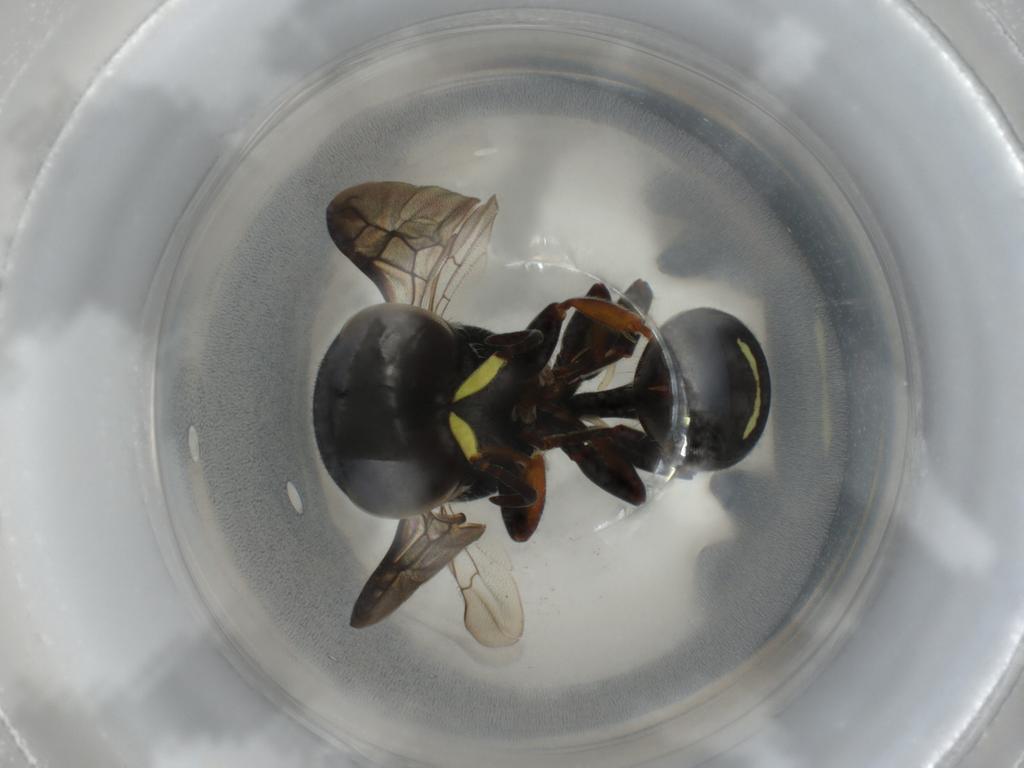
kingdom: Animalia
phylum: Arthropoda
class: Insecta
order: Hymenoptera
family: Crabronidae
